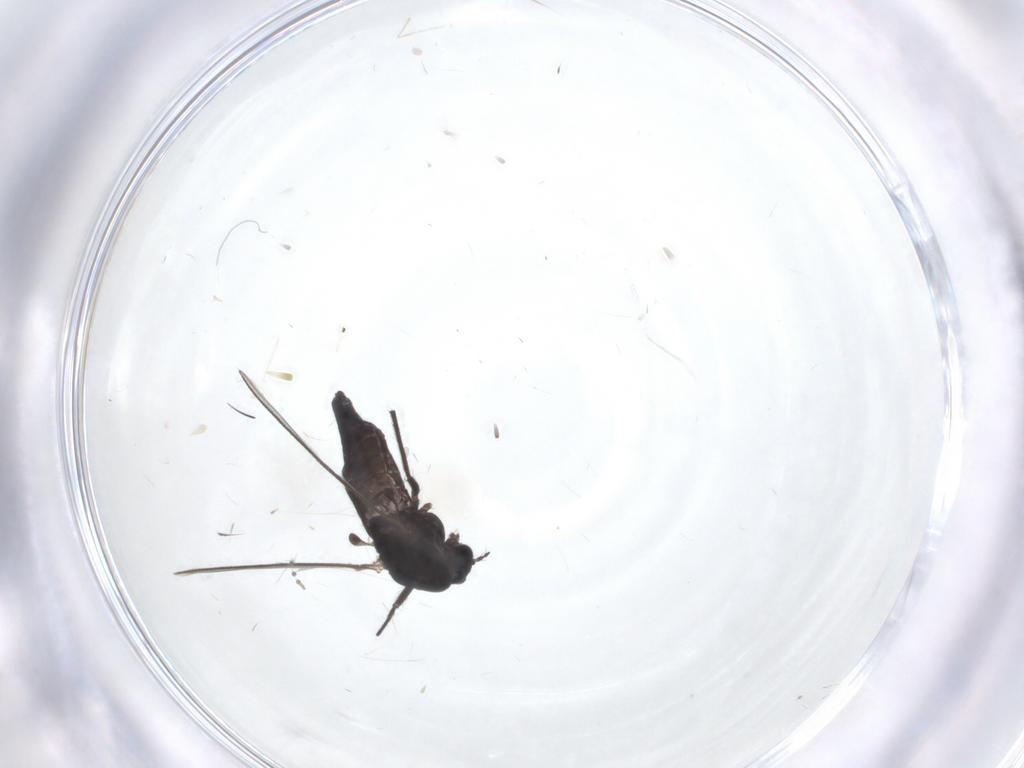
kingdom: Animalia
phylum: Arthropoda
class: Insecta
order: Diptera
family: Chironomidae
